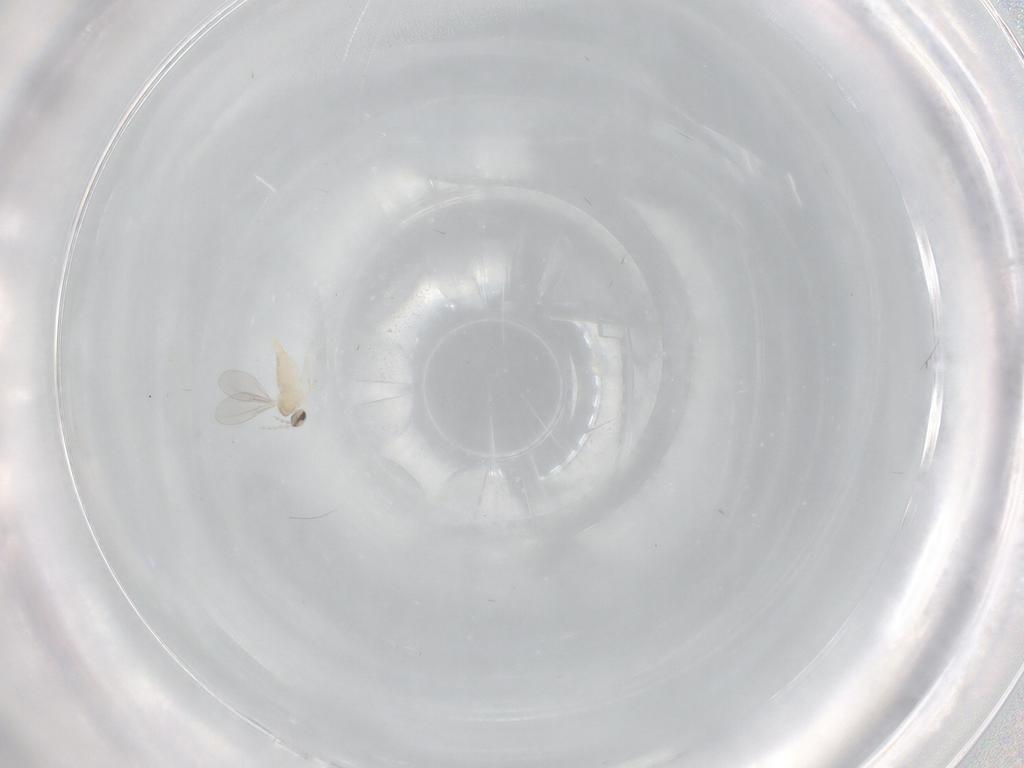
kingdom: Animalia
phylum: Arthropoda
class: Insecta
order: Diptera
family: Cecidomyiidae
